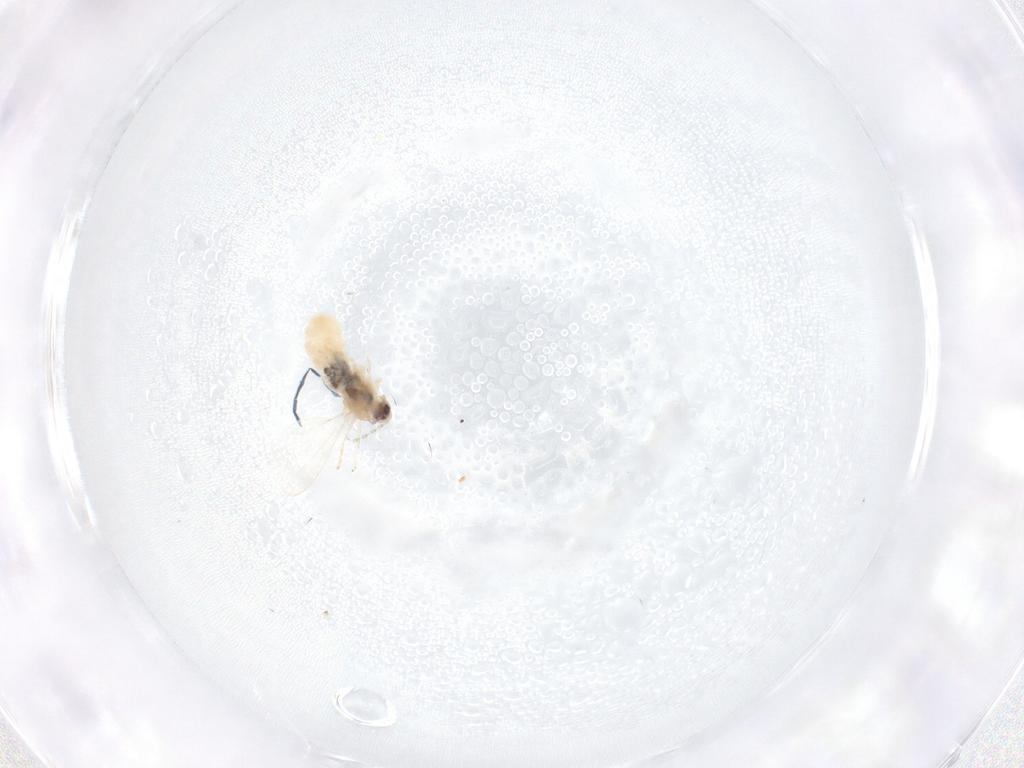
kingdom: Animalia
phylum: Arthropoda
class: Insecta
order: Diptera
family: Cecidomyiidae
